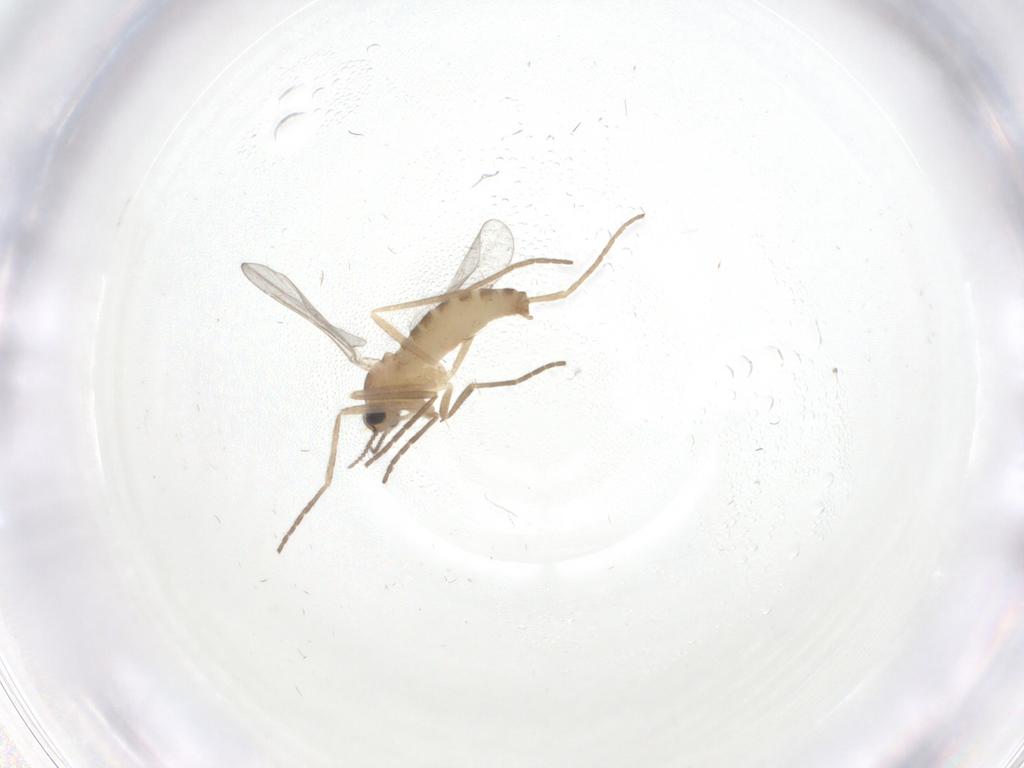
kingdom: Animalia
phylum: Arthropoda
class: Insecta
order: Diptera
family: Cecidomyiidae
